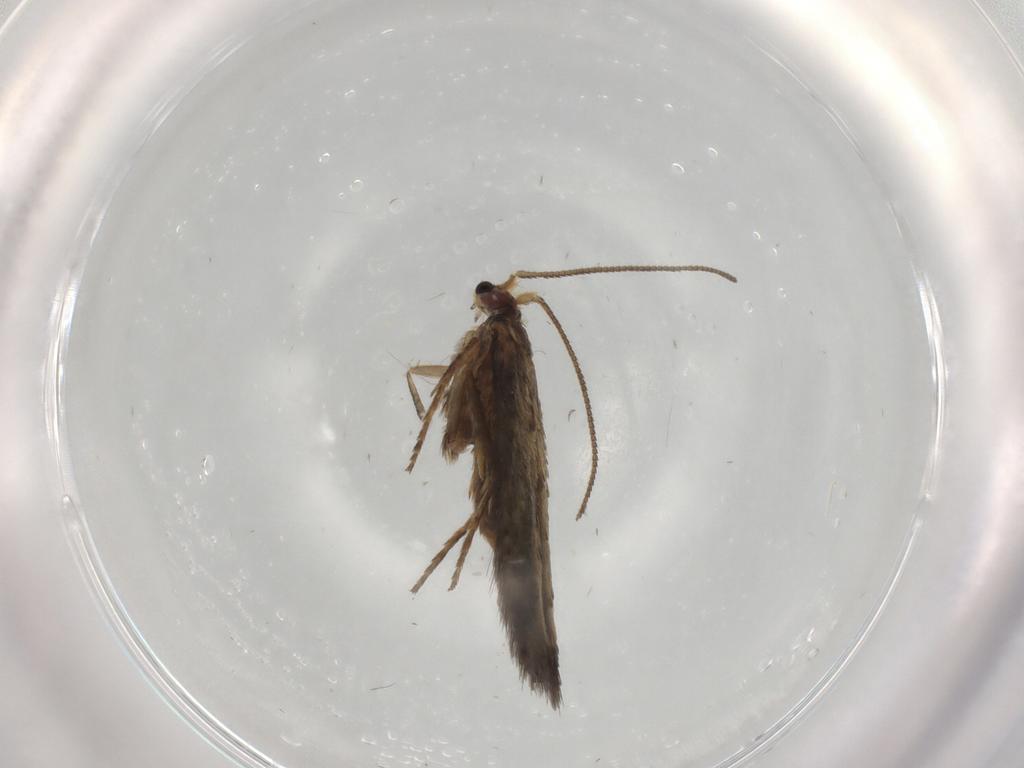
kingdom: Animalia
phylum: Arthropoda
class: Insecta
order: Lepidoptera
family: Nepticulidae
